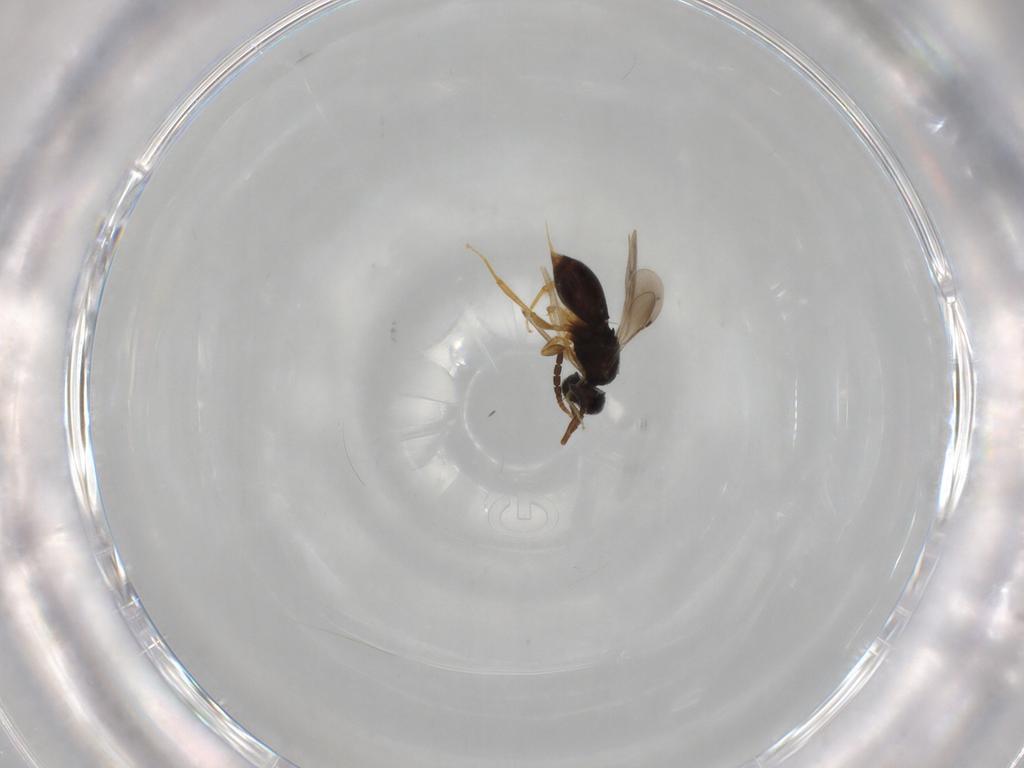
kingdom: Animalia
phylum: Arthropoda
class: Insecta
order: Hymenoptera
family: Ceraphronidae
